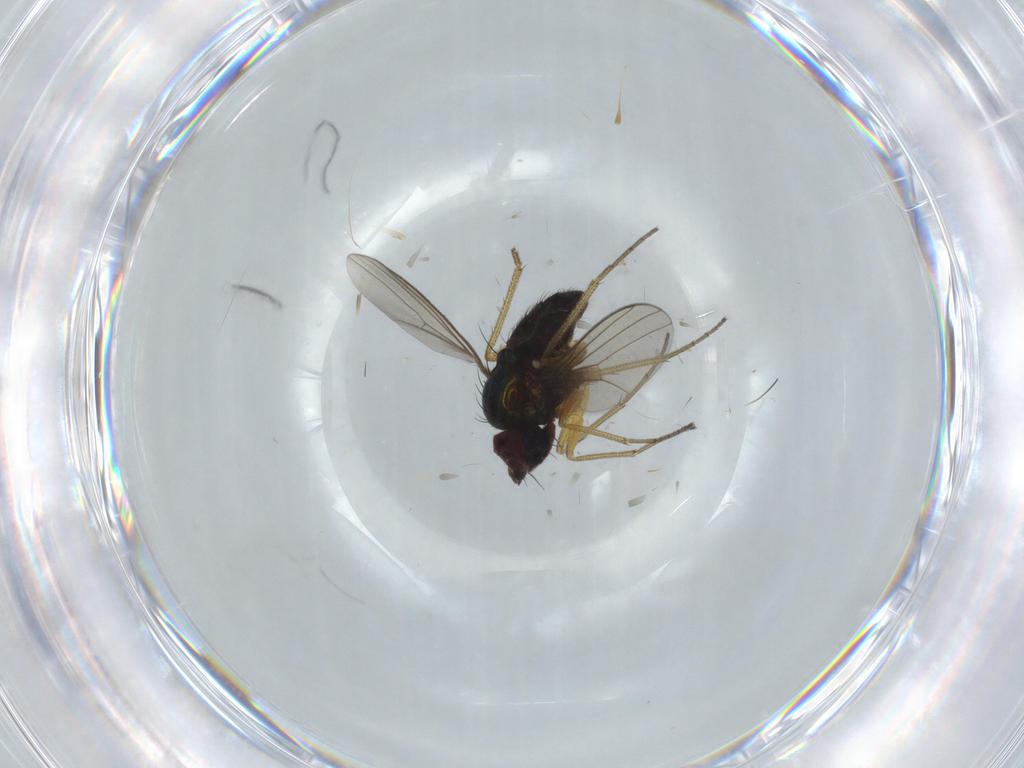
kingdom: Animalia
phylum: Arthropoda
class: Insecta
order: Diptera
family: Dolichopodidae
